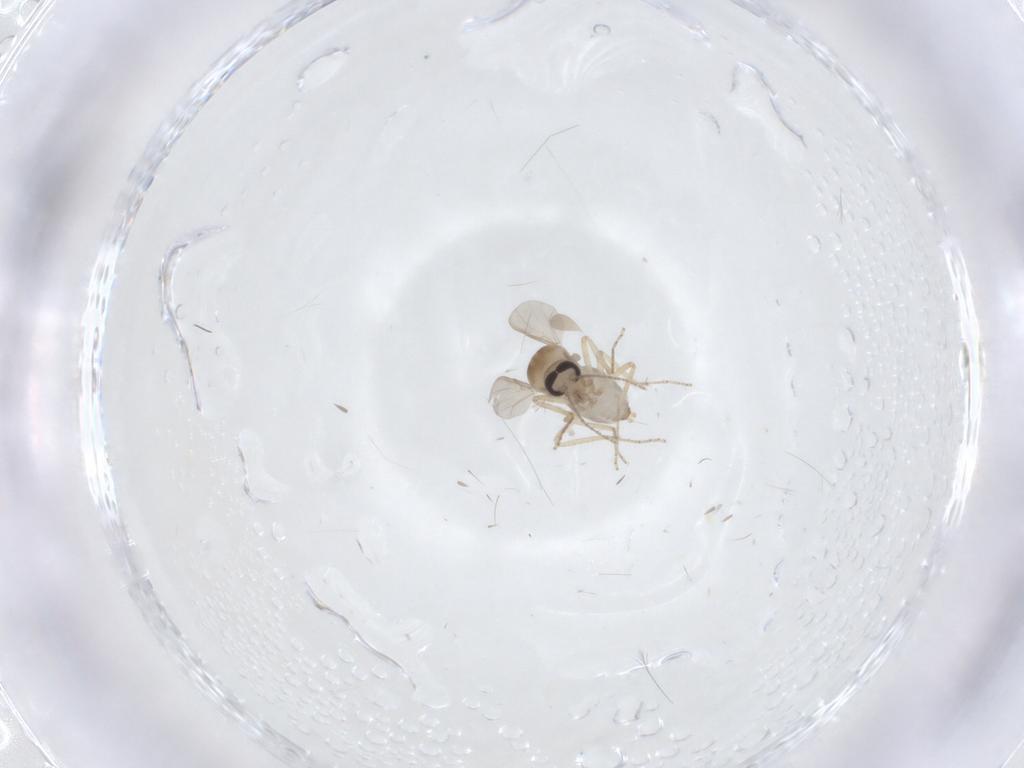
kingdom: Animalia
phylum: Arthropoda
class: Insecta
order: Diptera
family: Ceratopogonidae
